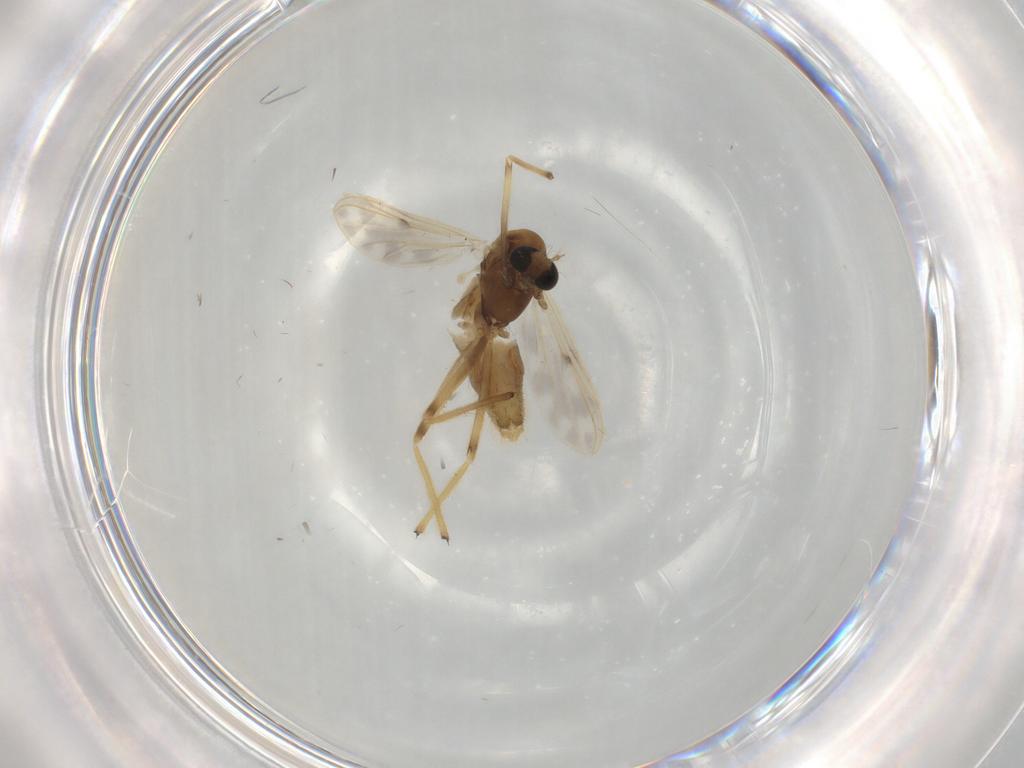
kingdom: Animalia
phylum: Arthropoda
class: Insecta
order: Diptera
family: Chironomidae
